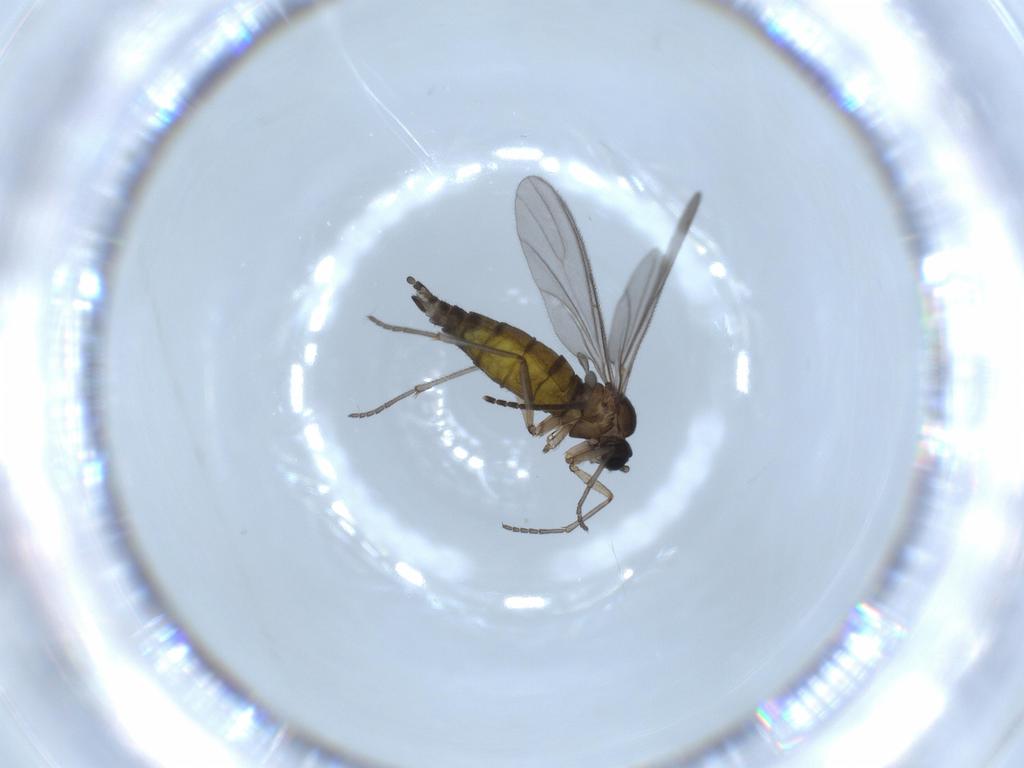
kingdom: Animalia
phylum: Arthropoda
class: Insecta
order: Diptera
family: Sciaridae
